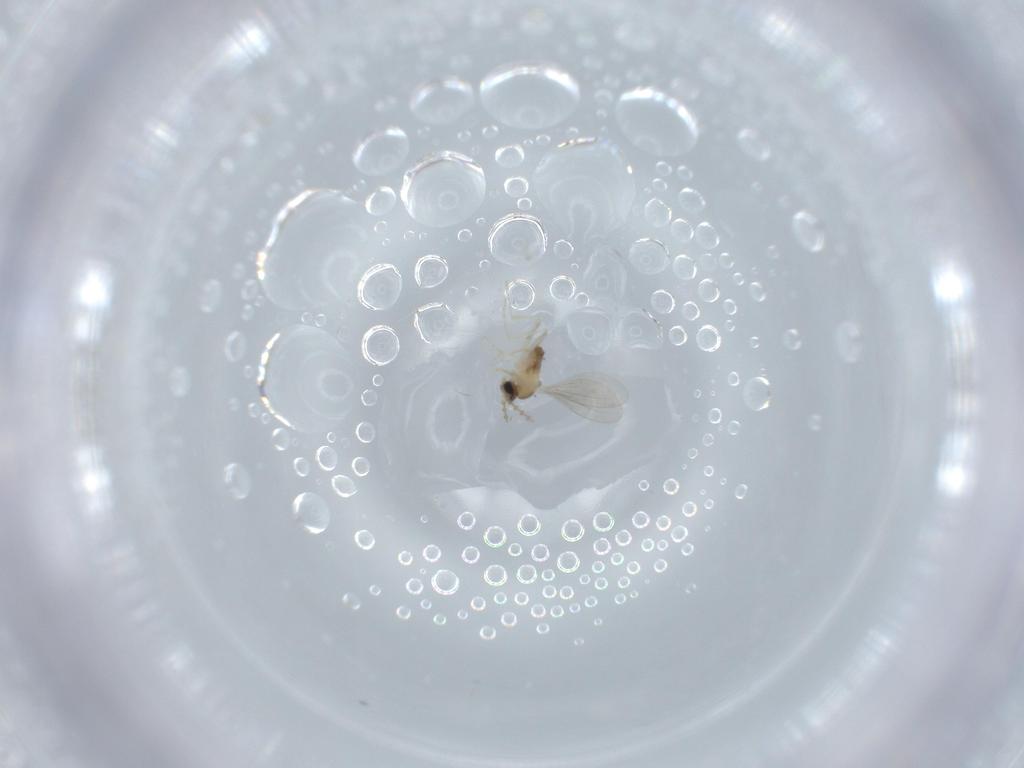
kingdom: Animalia
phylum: Arthropoda
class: Insecta
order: Diptera
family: Cecidomyiidae
